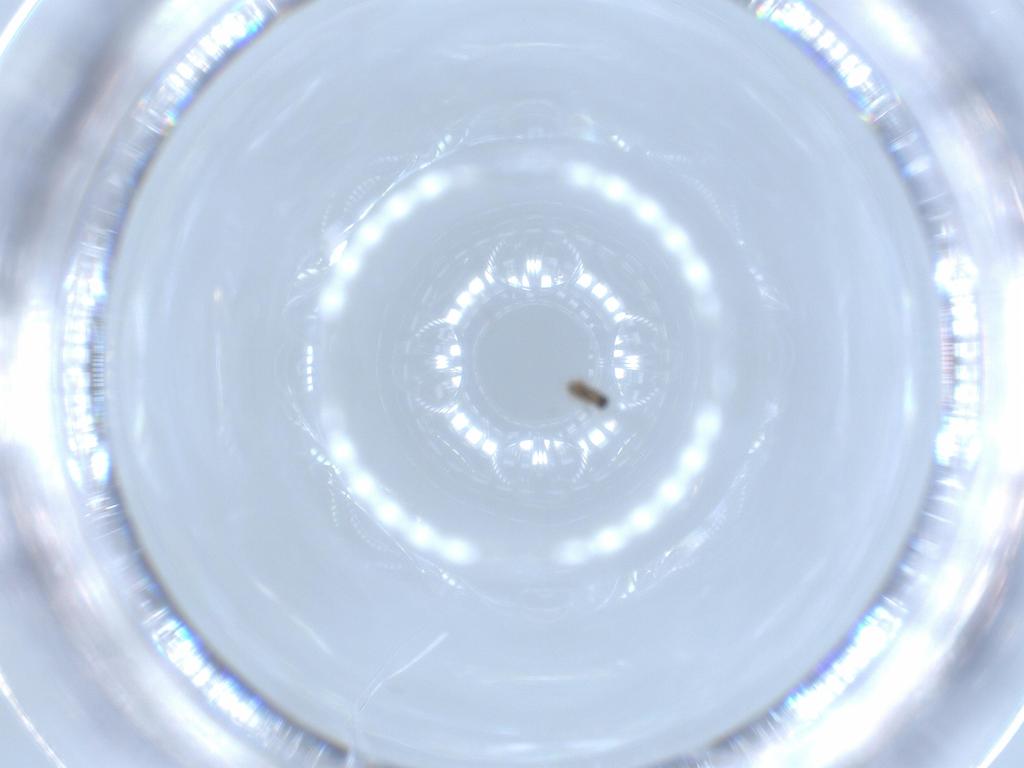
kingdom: Animalia
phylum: Arthropoda
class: Insecta
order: Hymenoptera
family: Mymaridae
